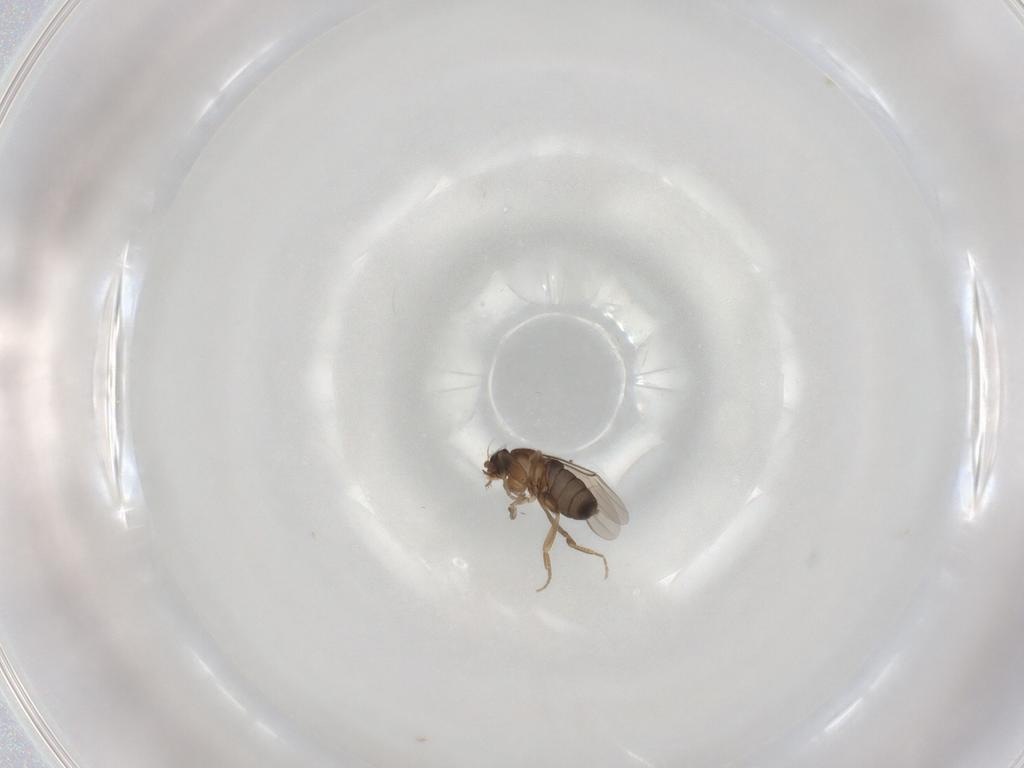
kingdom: Animalia
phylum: Arthropoda
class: Insecta
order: Diptera
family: Phoridae
